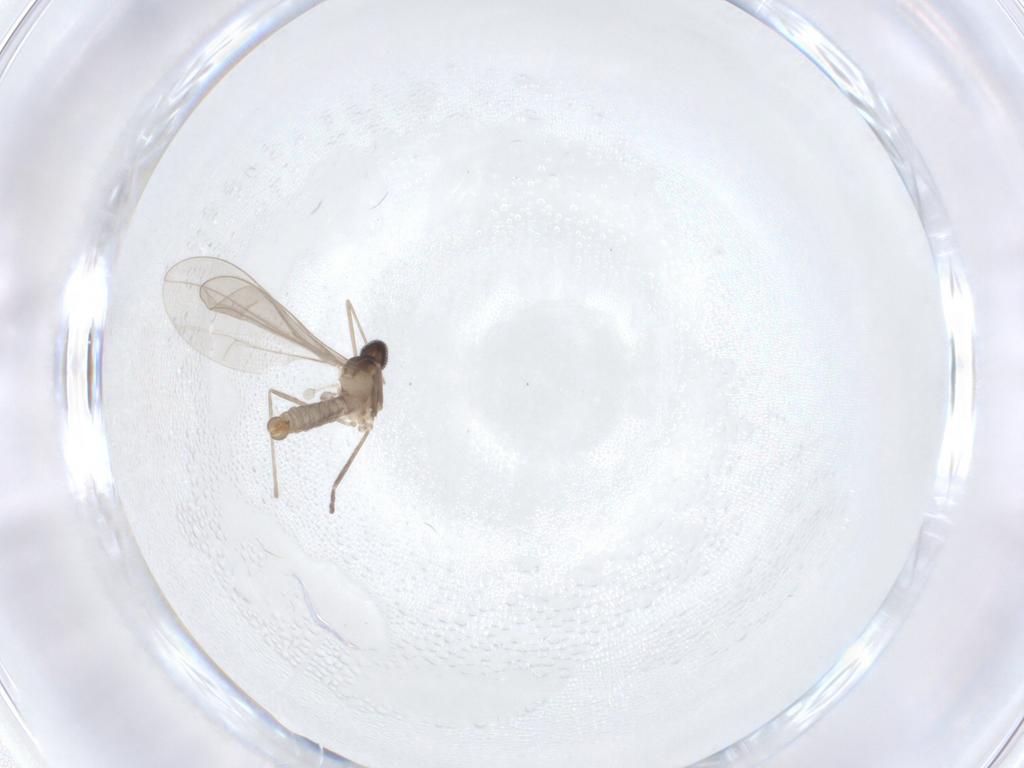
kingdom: Animalia
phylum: Arthropoda
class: Insecta
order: Diptera
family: Cecidomyiidae
